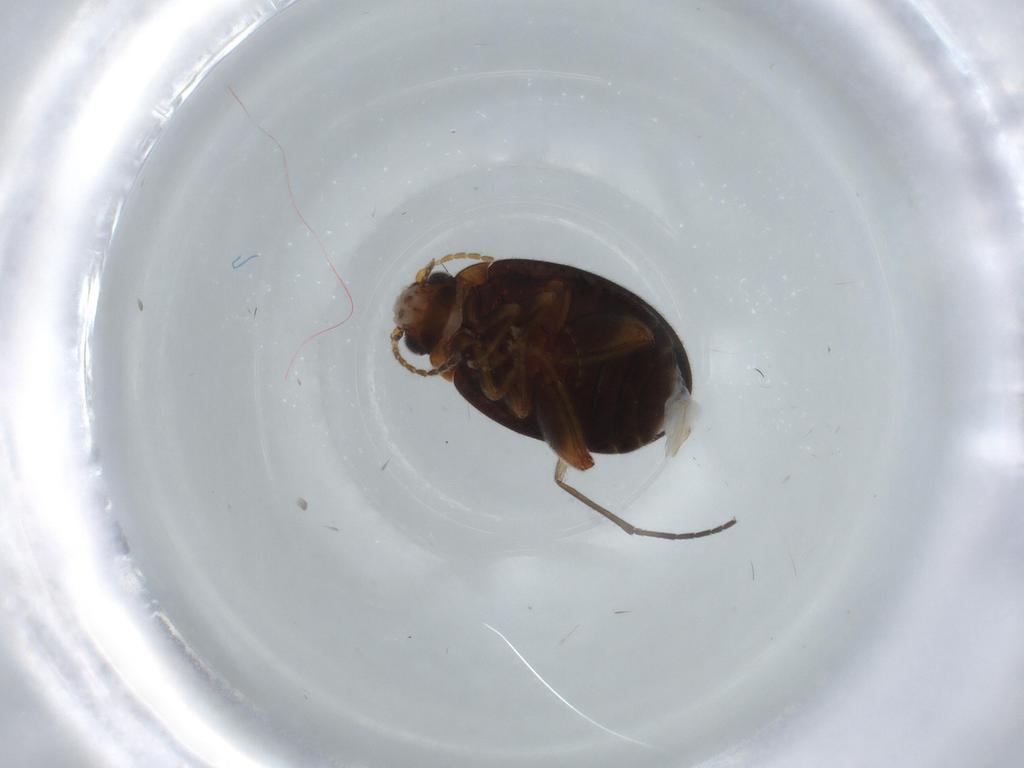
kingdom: Animalia
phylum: Arthropoda
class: Insecta
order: Coleoptera
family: Scirtidae
